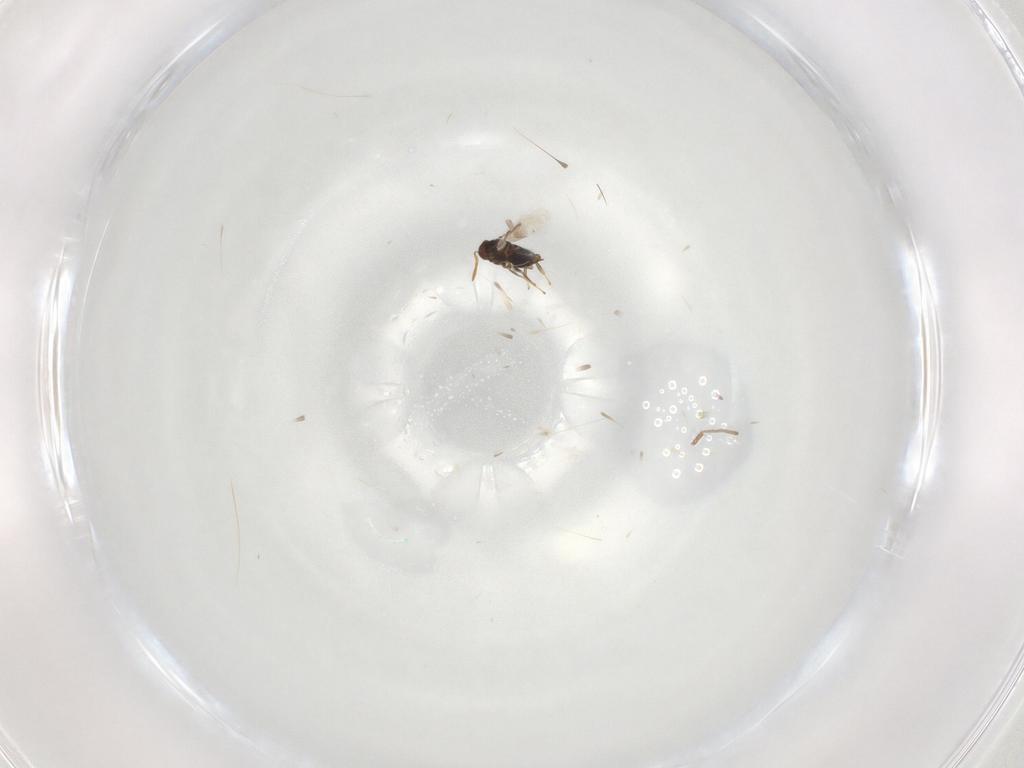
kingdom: Animalia
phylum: Arthropoda
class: Insecta
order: Hymenoptera
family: Aphelinidae
